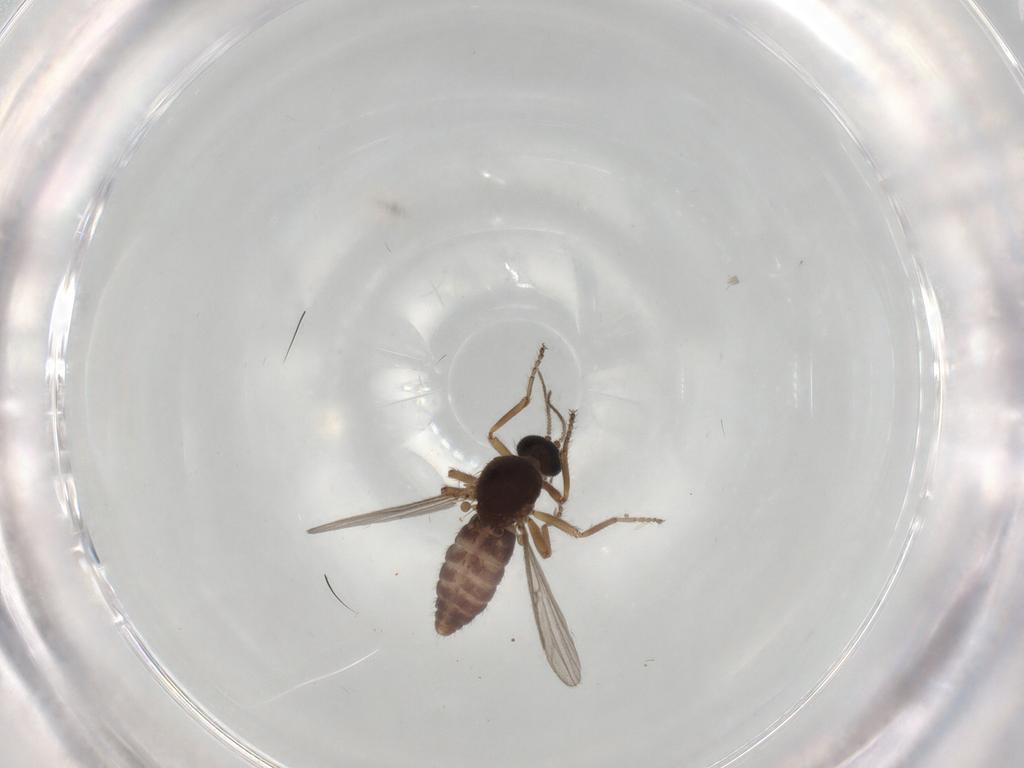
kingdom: Animalia
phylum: Arthropoda
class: Insecta
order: Diptera
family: Ceratopogonidae
